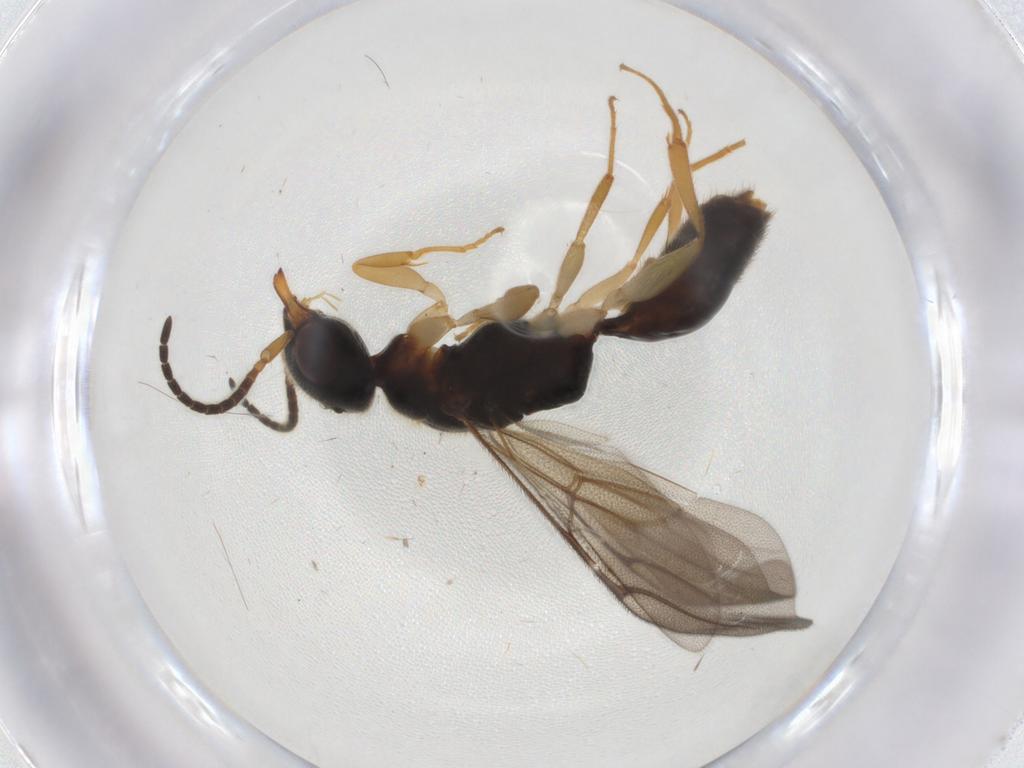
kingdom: Animalia
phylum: Arthropoda
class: Insecta
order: Hymenoptera
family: Bethylidae
